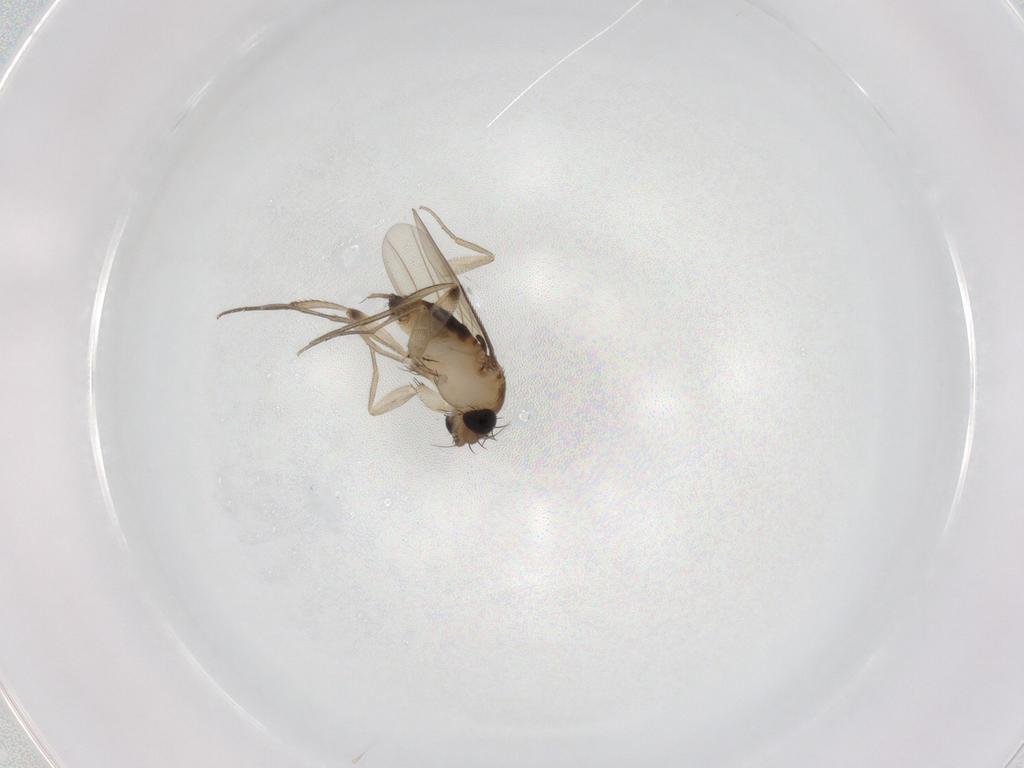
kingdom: Animalia
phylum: Arthropoda
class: Insecta
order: Diptera
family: Phoridae
